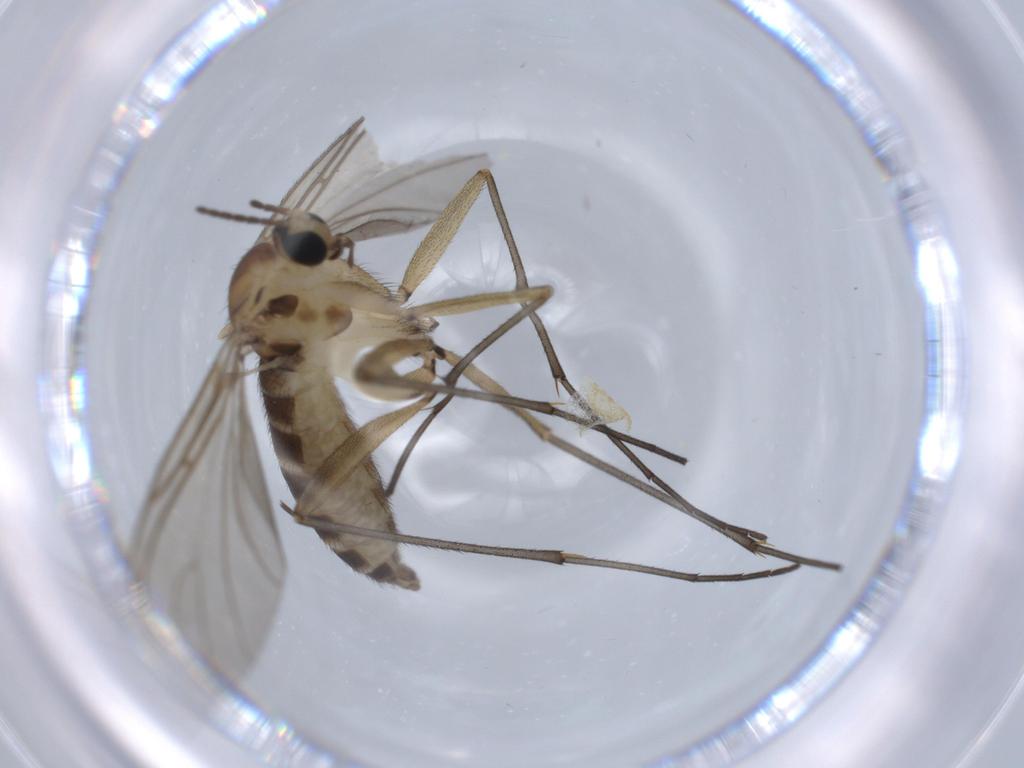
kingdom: Animalia
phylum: Arthropoda
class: Insecta
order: Diptera
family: Sciaridae
